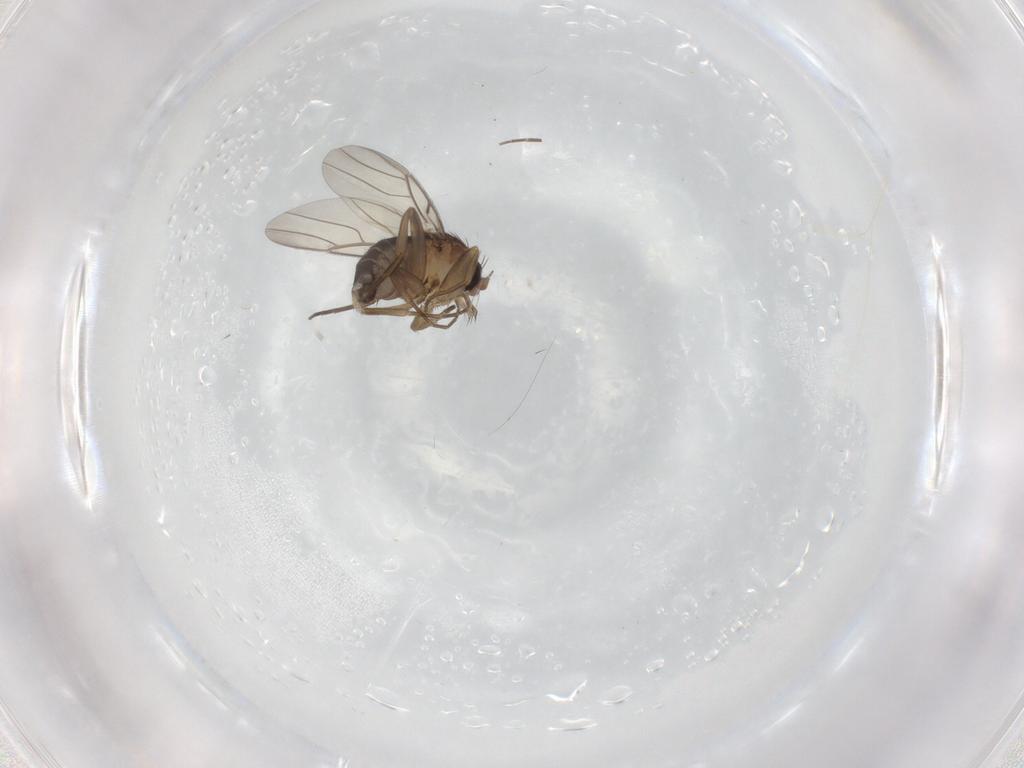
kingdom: Animalia
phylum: Arthropoda
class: Insecta
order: Diptera
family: Phoridae
